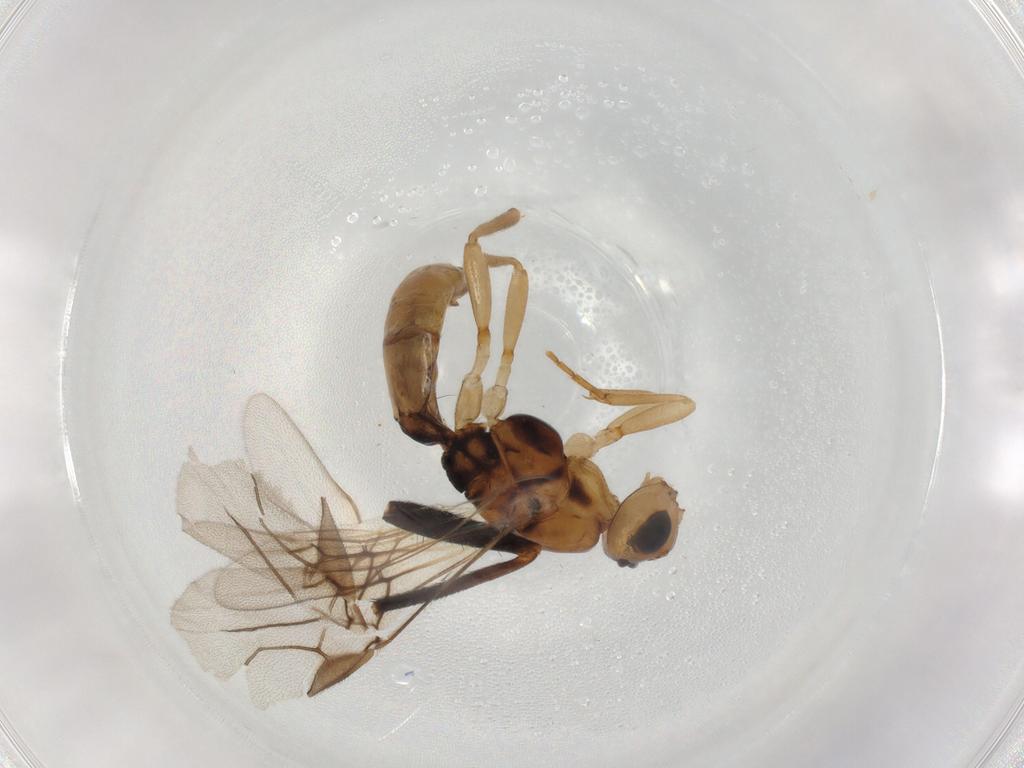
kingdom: Animalia
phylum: Arthropoda
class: Insecta
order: Hymenoptera
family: Braconidae
